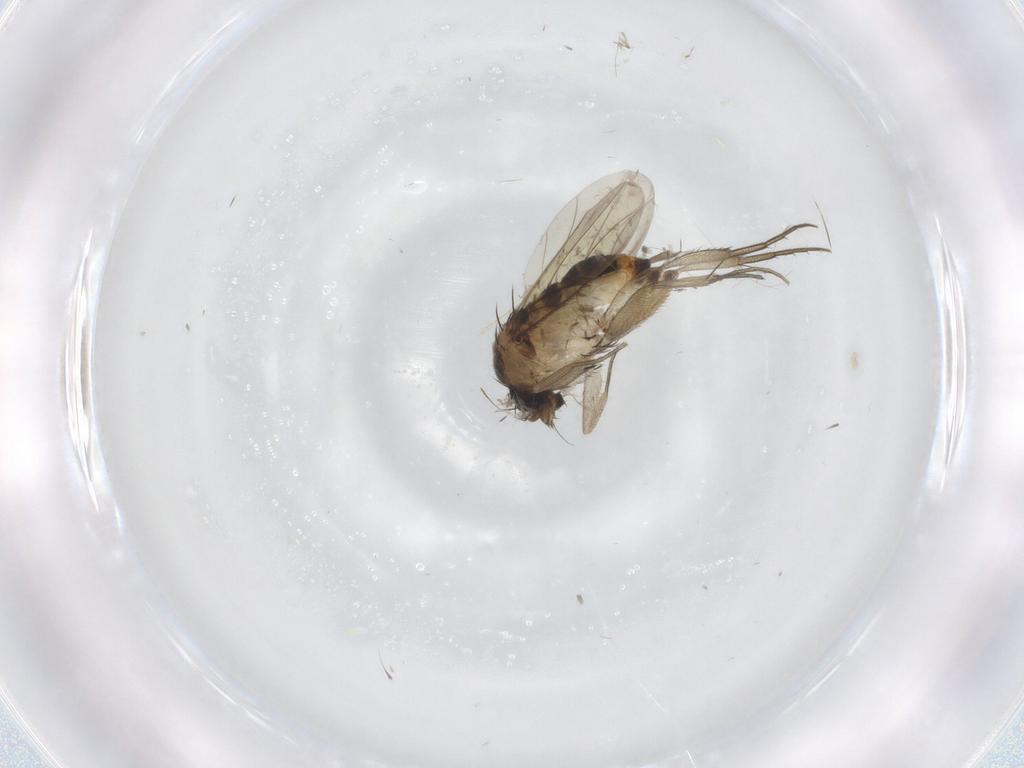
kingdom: Animalia
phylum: Arthropoda
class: Insecta
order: Diptera
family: Phoridae
